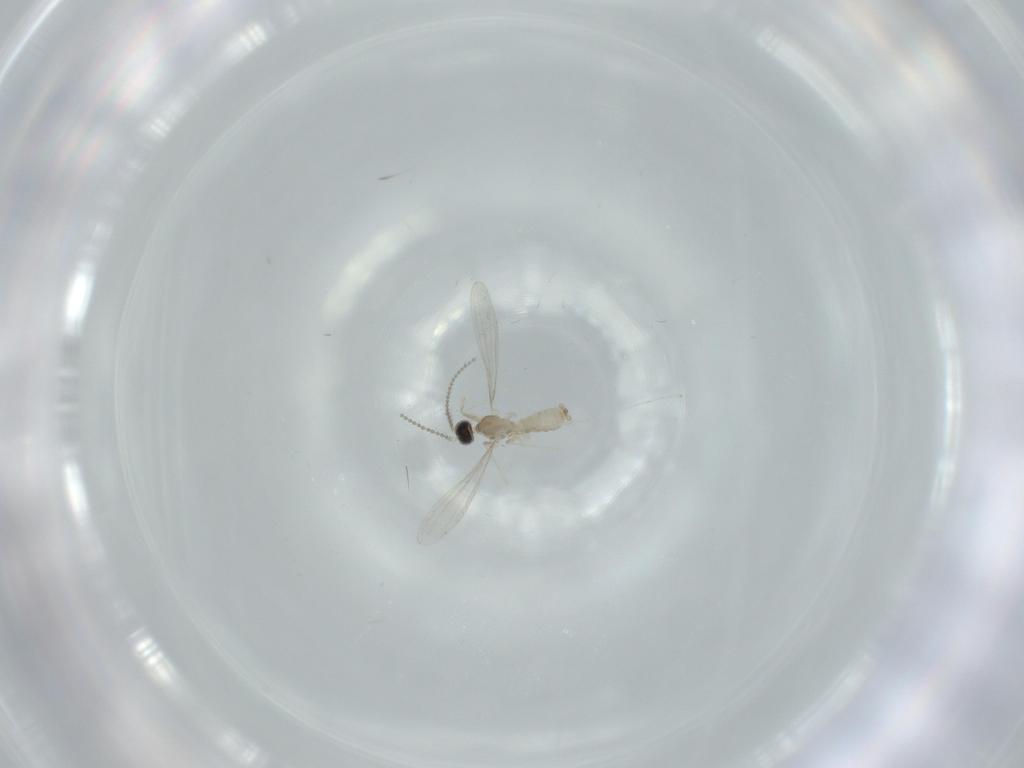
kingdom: Animalia
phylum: Arthropoda
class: Insecta
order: Diptera
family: Cecidomyiidae
